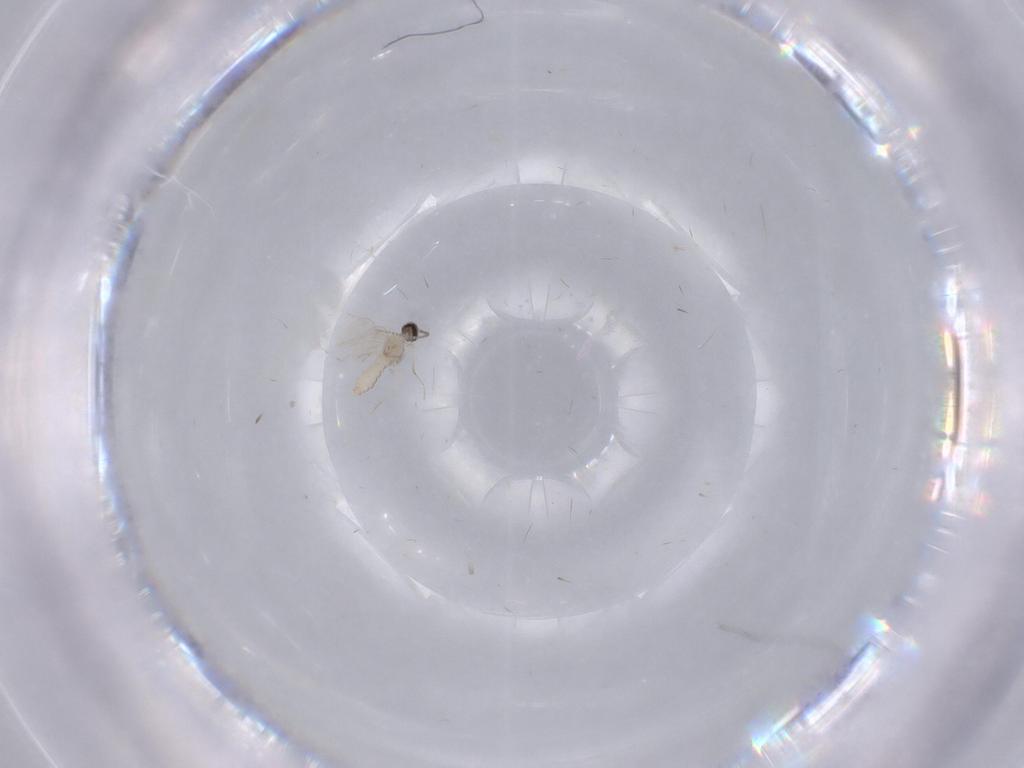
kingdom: Animalia
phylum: Arthropoda
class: Insecta
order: Diptera
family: Cecidomyiidae
